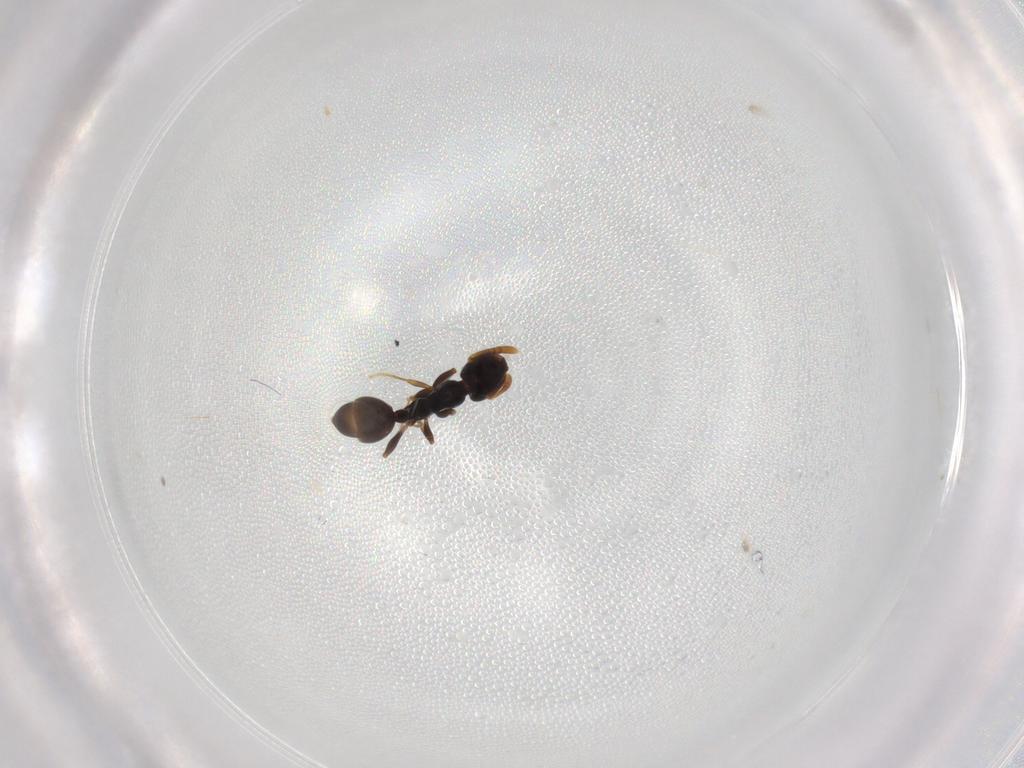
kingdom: Animalia
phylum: Arthropoda
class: Insecta
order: Hymenoptera
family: Formicidae
